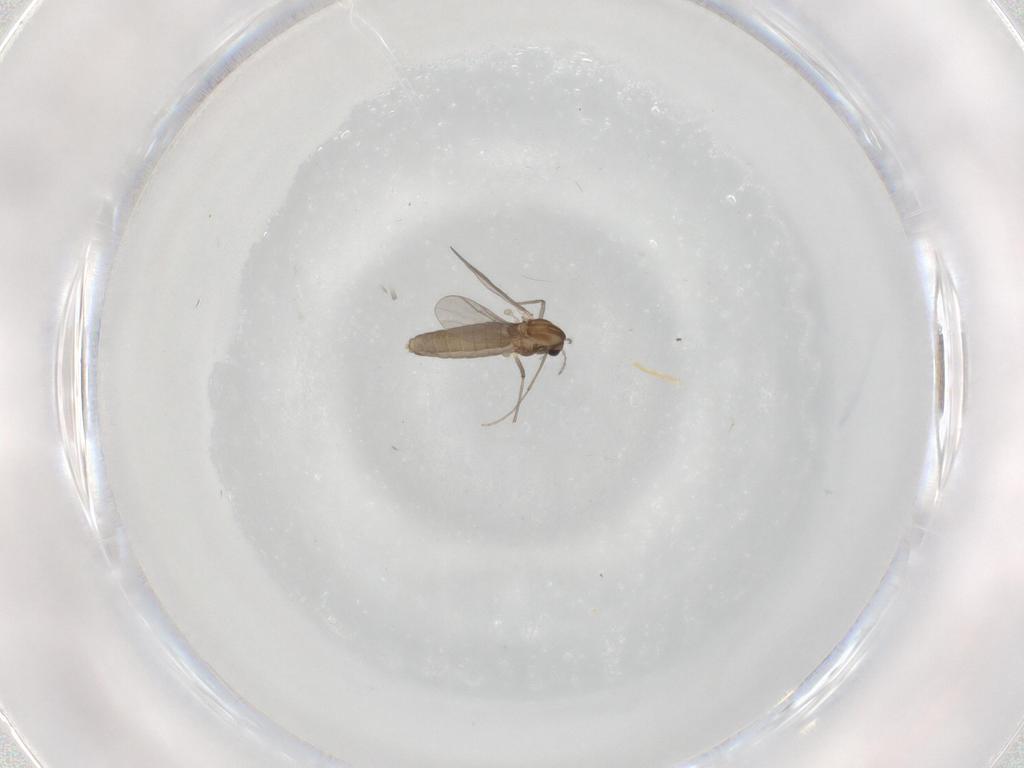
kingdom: Animalia
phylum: Arthropoda
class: Insecta
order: Diptera
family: Chironomidae
